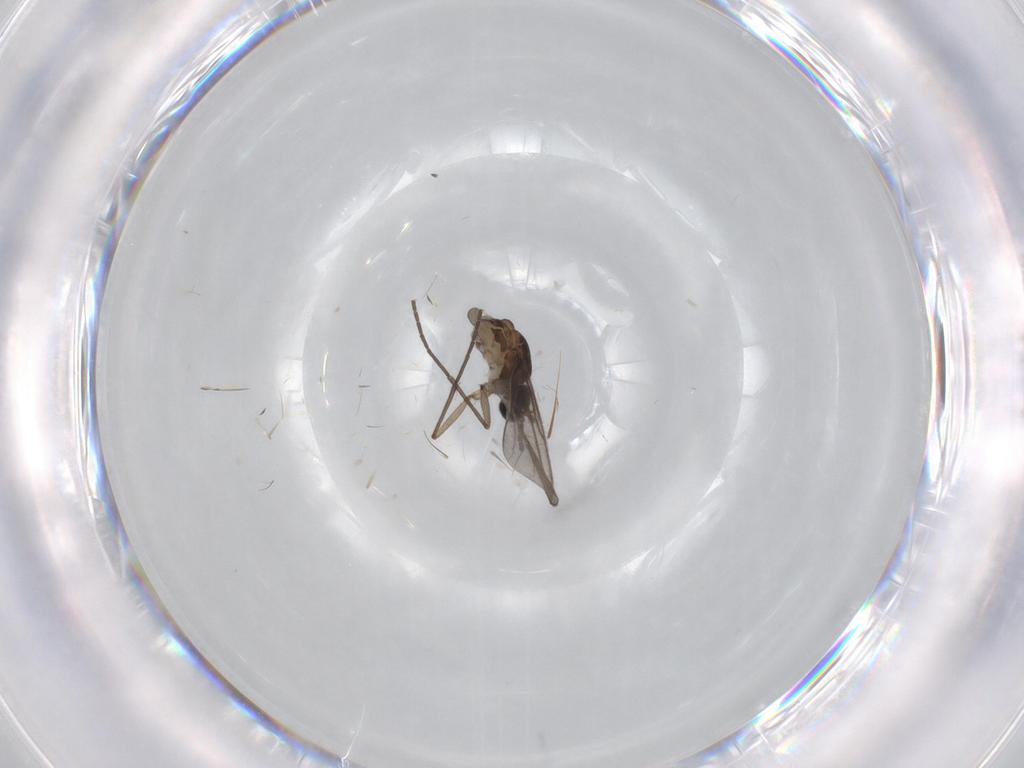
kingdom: Animalia
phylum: Arthropoda
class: Insecta
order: Diptera
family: Sciaridae
